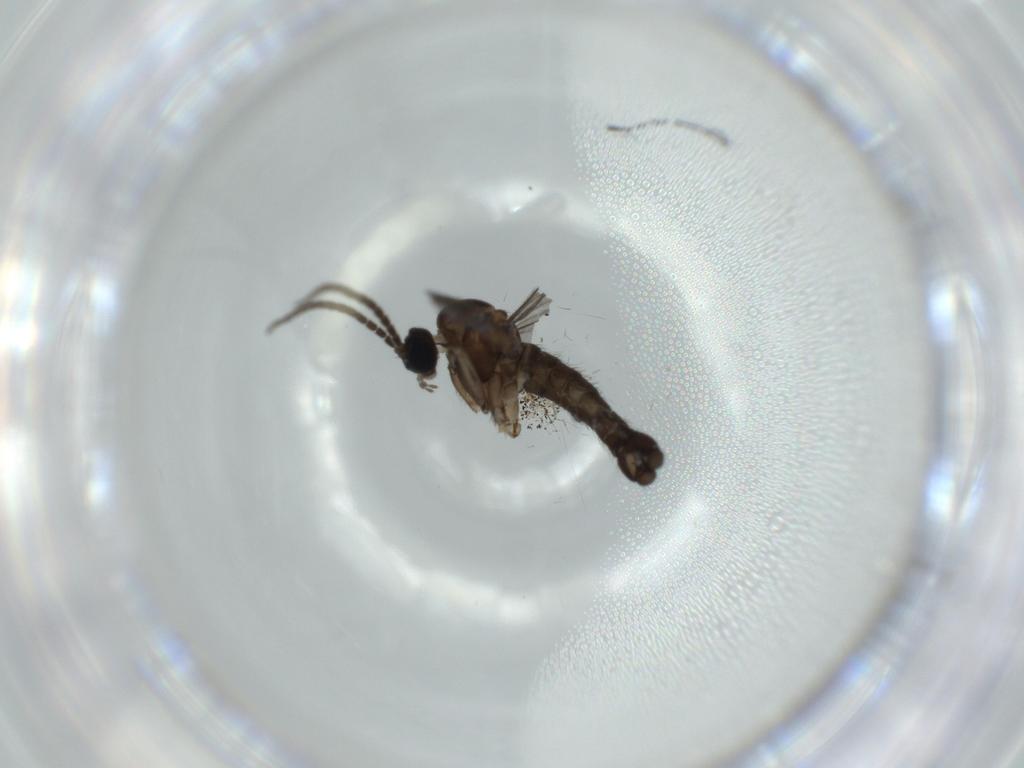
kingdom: Animalia
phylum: Arthropoda
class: Insecta
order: Diptera
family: Sciaridae
